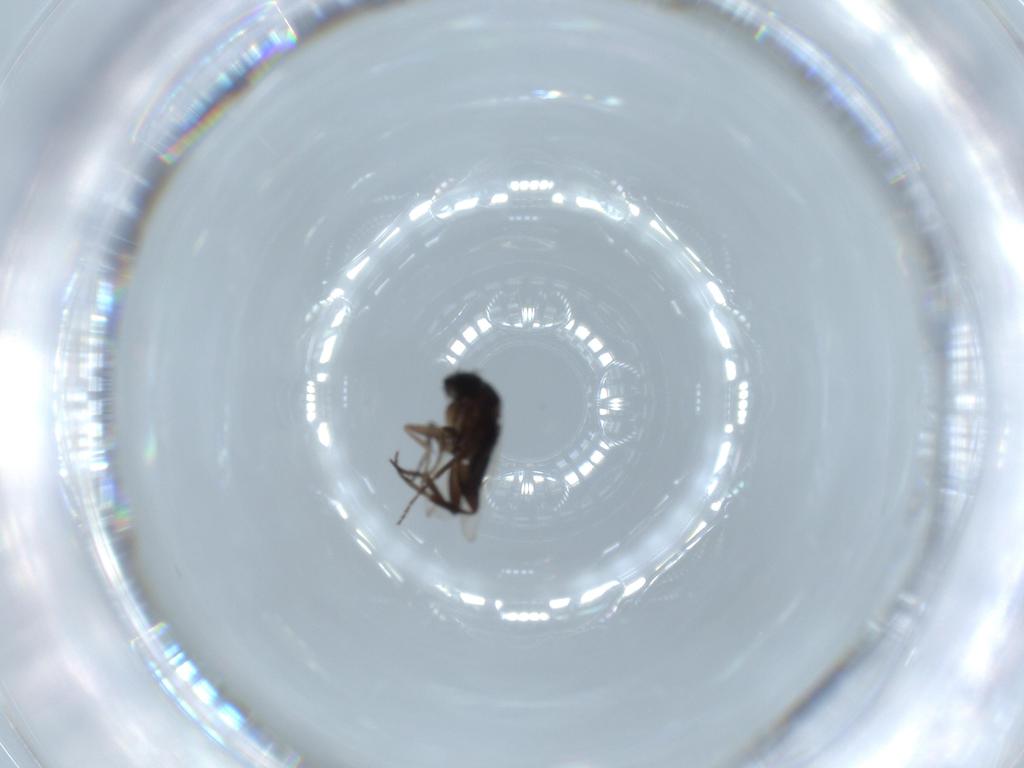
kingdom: Animalia
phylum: Arthropoda
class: Insecta
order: Diptera
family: Phoridae
